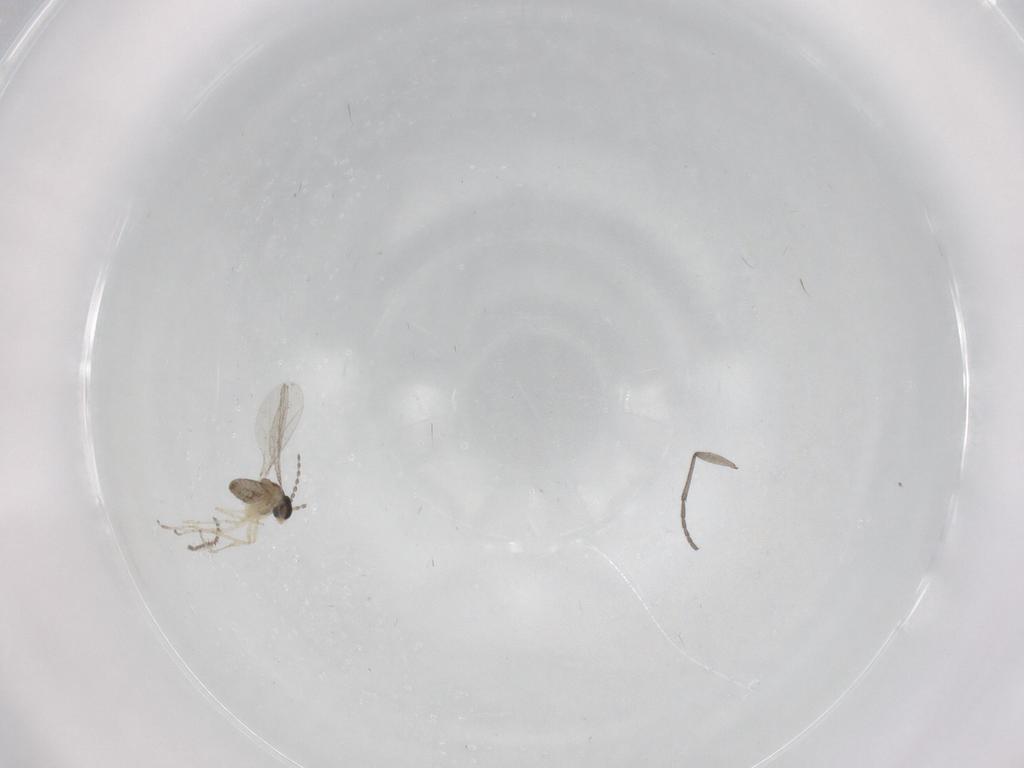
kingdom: Animalia
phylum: Arthropoda
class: Insecta
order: Diptera
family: Sciaridae
